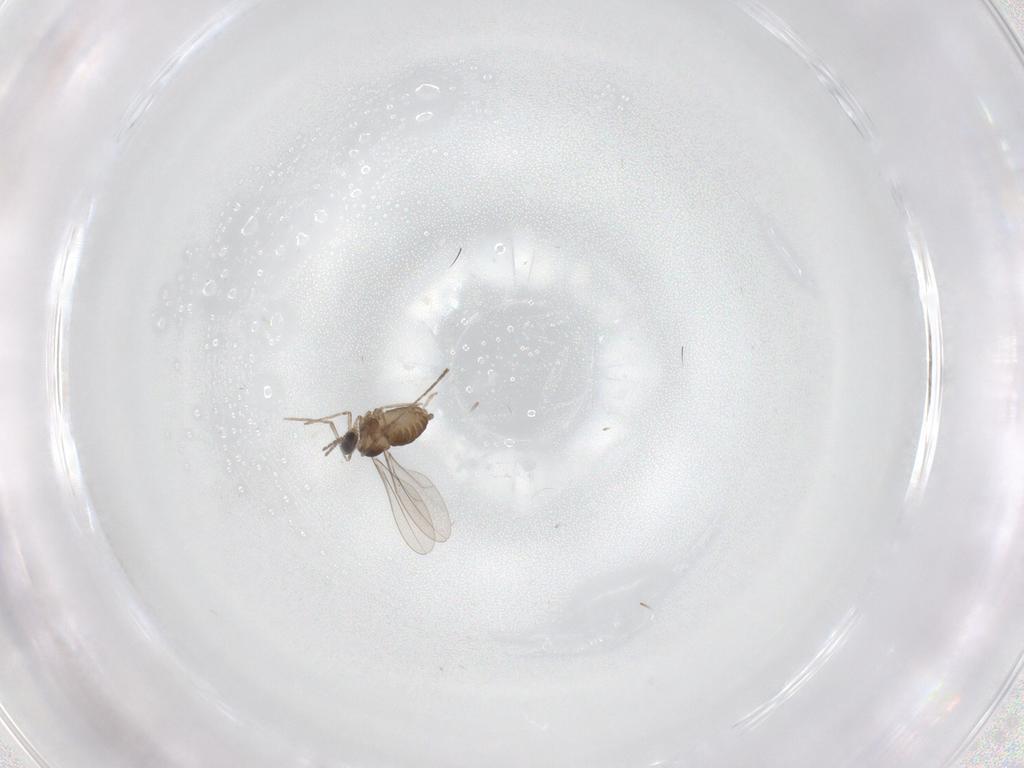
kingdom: Animalia
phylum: Arthropoda
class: Insecta
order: Diptera
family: Cecidomyiidae
